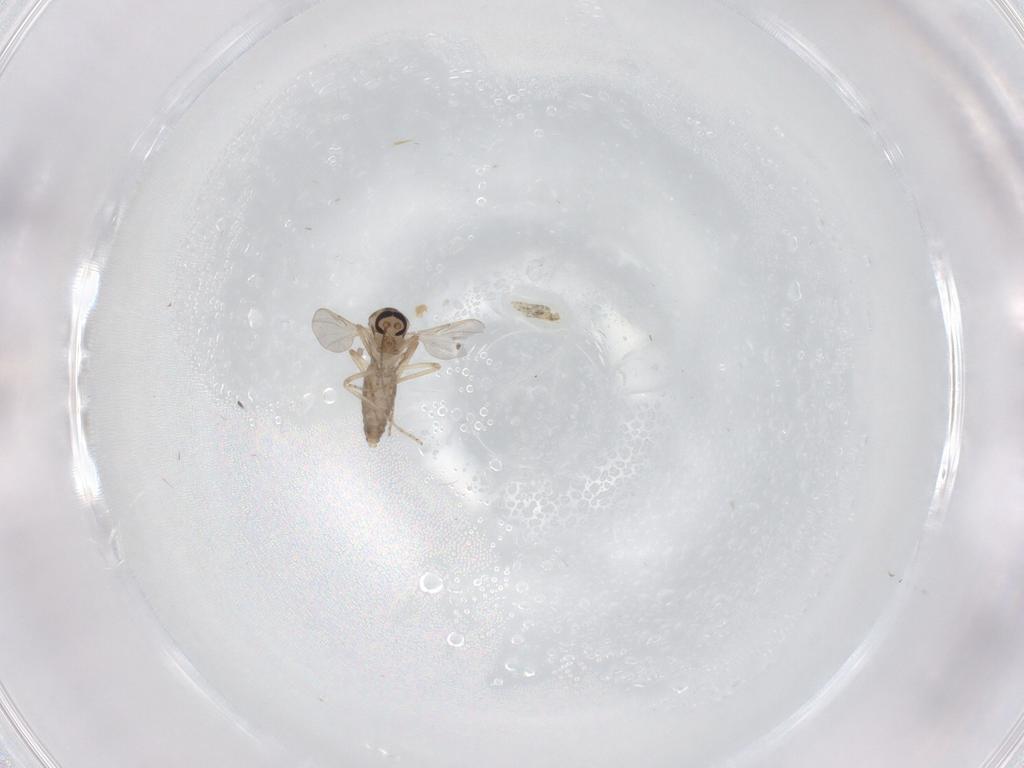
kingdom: Animalia
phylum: Arthropoda
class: Insecta
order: Diptera
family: Ceratopogonidae
